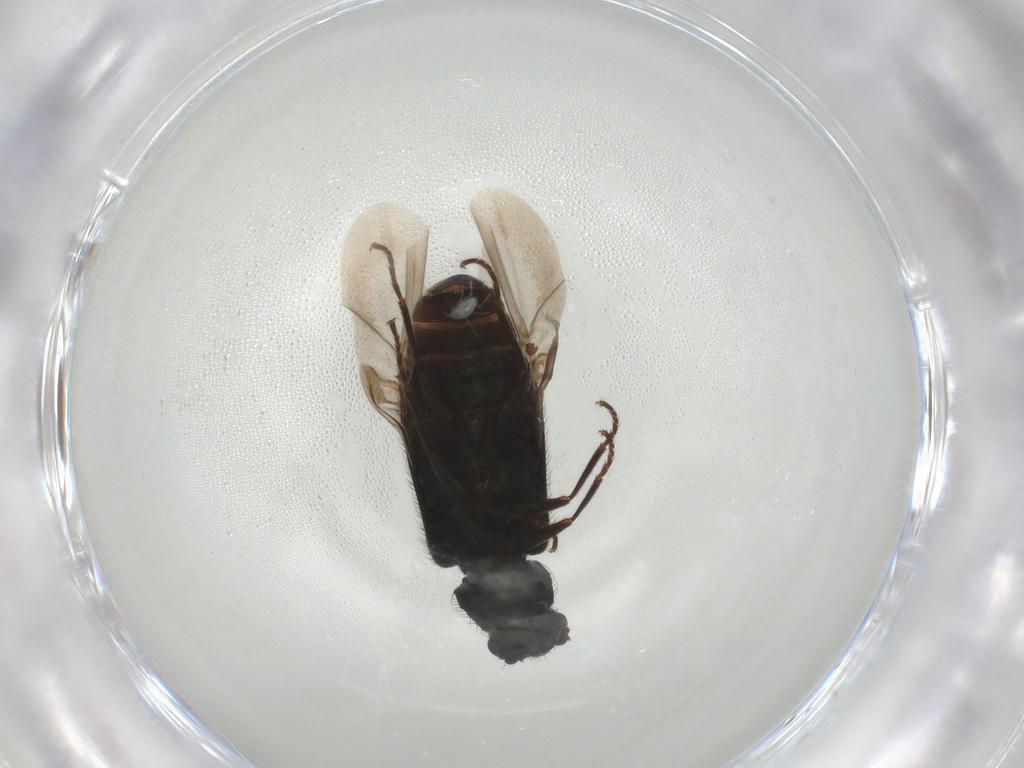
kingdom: Animalia
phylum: Arthropoda
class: Insecta
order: Coleoptera
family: Melyridae
